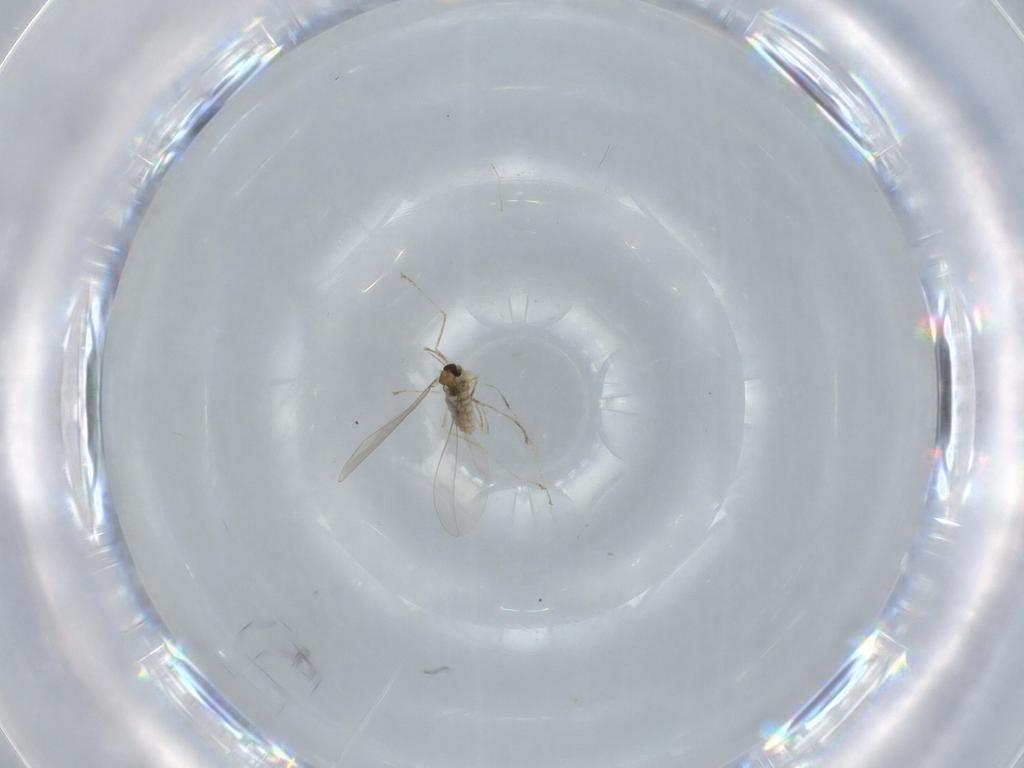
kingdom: Animalia
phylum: Arthropoda
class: Insecta
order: Diptera
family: Cecidomyiidae
